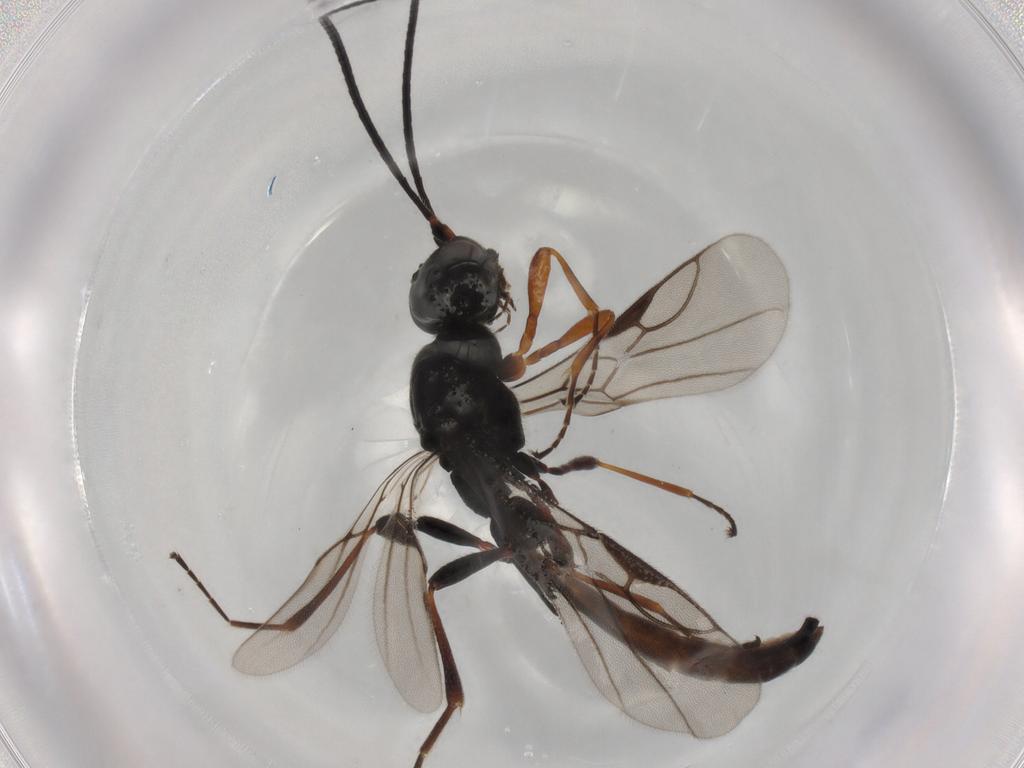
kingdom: Animalia
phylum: Arthropoda
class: Insecta
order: Hymenoptera
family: Braconidae
